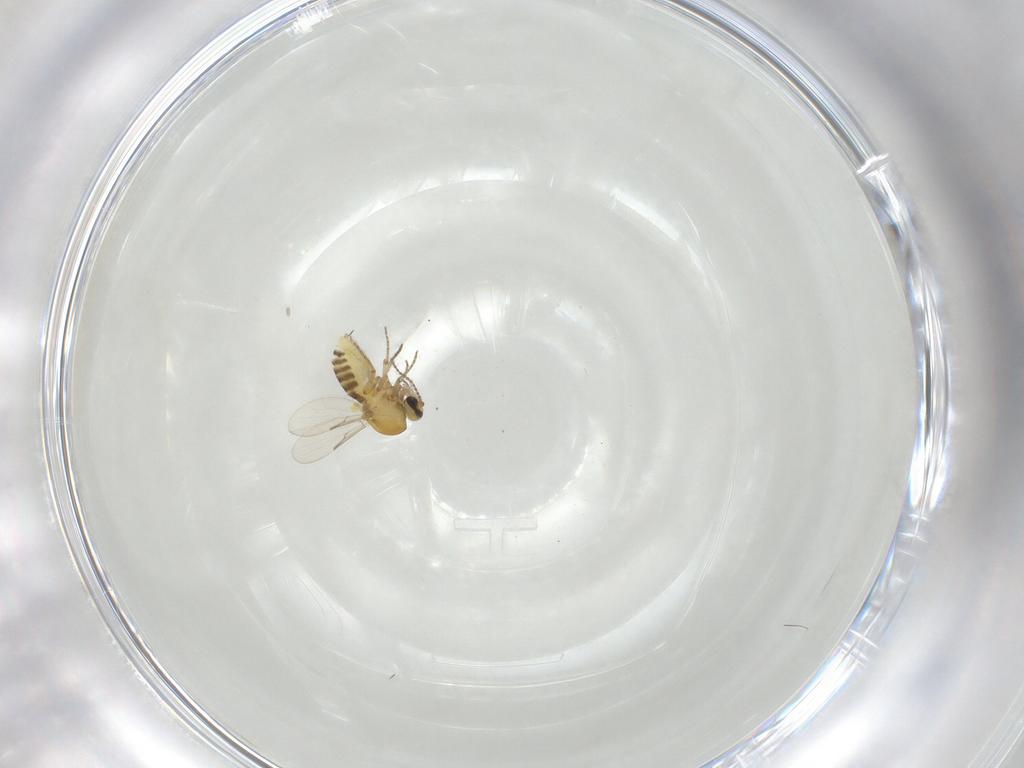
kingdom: Animalia
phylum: Arthropoda
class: Insecta
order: Diptera
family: Ceratopogonidae
